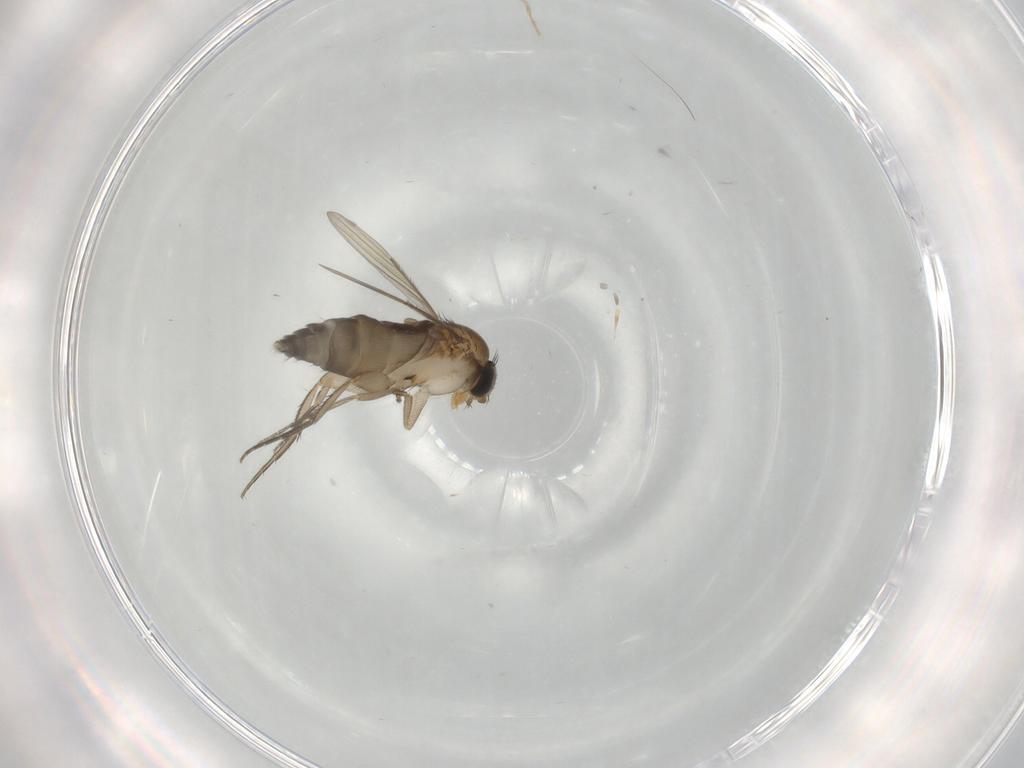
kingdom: Animalia
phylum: Arthropoda
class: Insecta
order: Diptera
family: Phoridae
